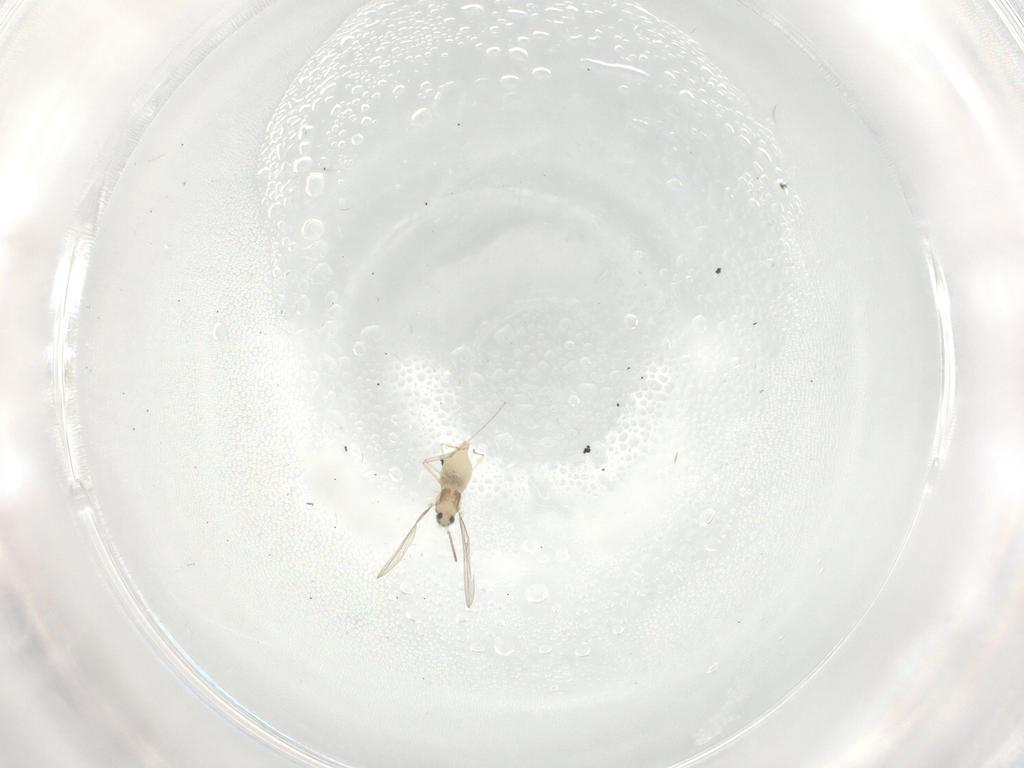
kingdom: Animalia
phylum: Arthropoda
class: Insecta
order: Diptera
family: Cecidomyiidae
